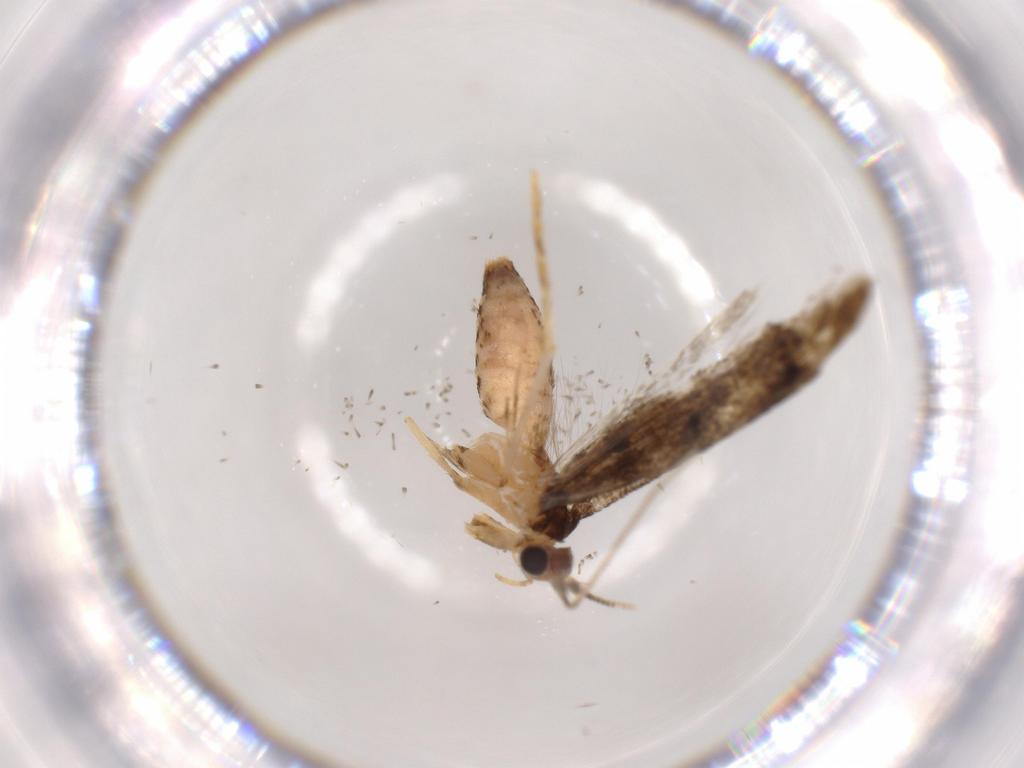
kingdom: Animalia
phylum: Arthropoda
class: Insecta
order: Lepidoptera
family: Tineidae
